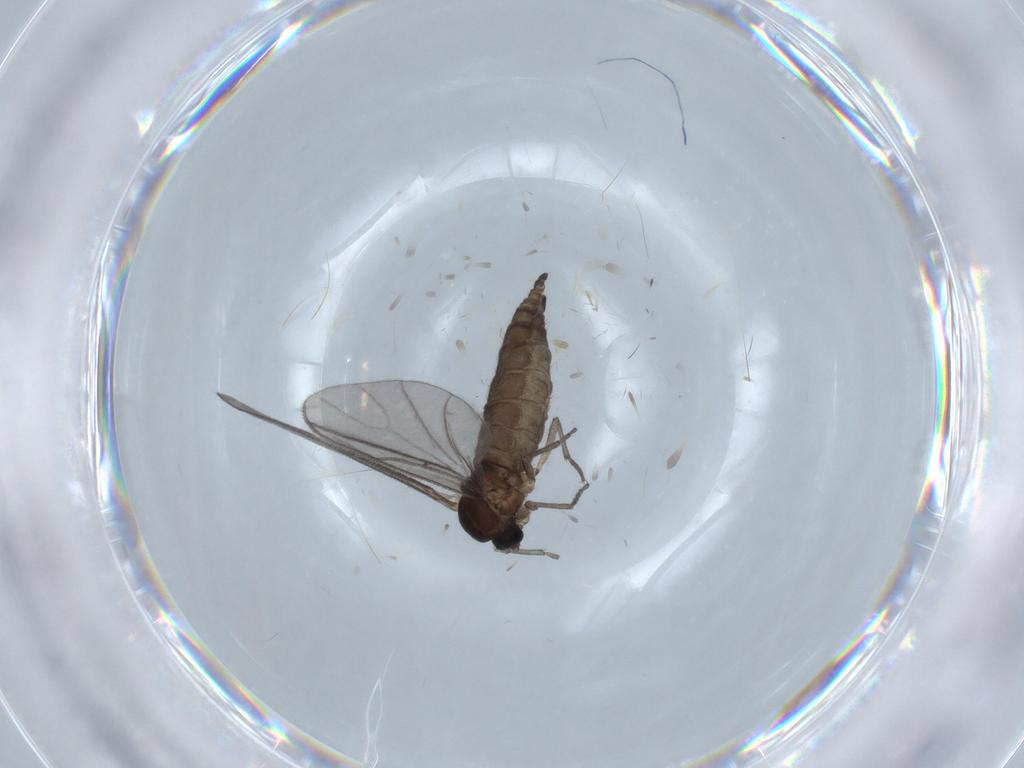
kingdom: Animalia
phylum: Arthropoda
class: Insecta
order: Diptera
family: Sciaridae
